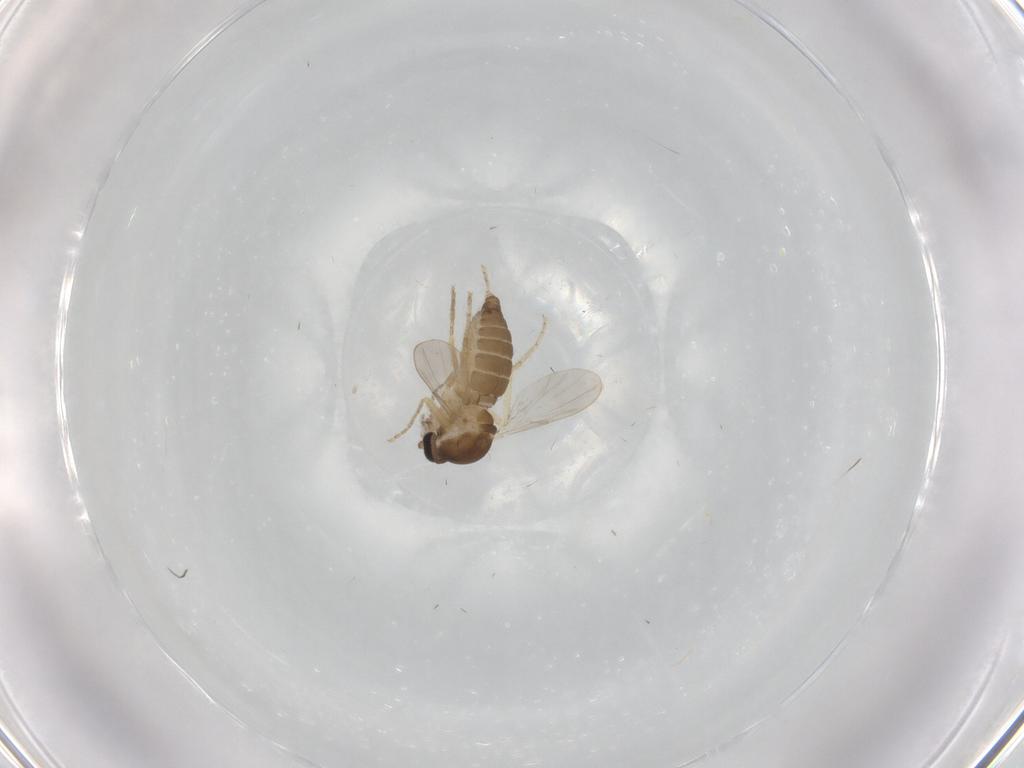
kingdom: Animalia
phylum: Arthropoda
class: Insecta
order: Diptera
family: Ceratopogonidae
